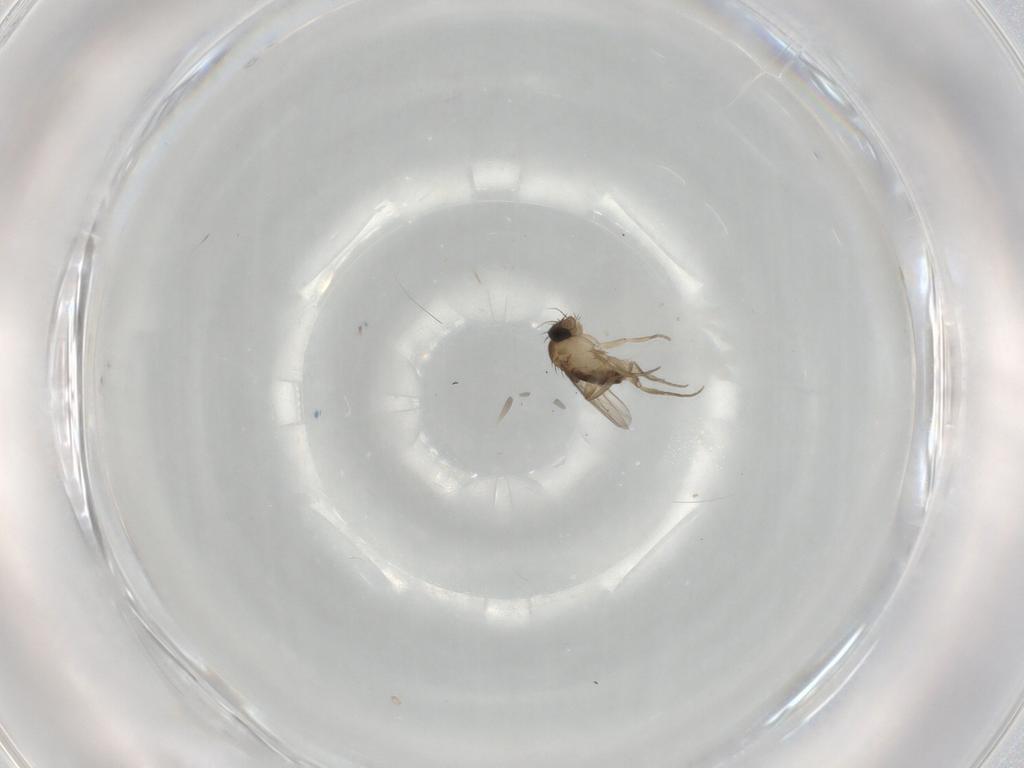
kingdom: Animalia
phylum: Arthropoda
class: Insecta
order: Diptera
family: Phoridae
